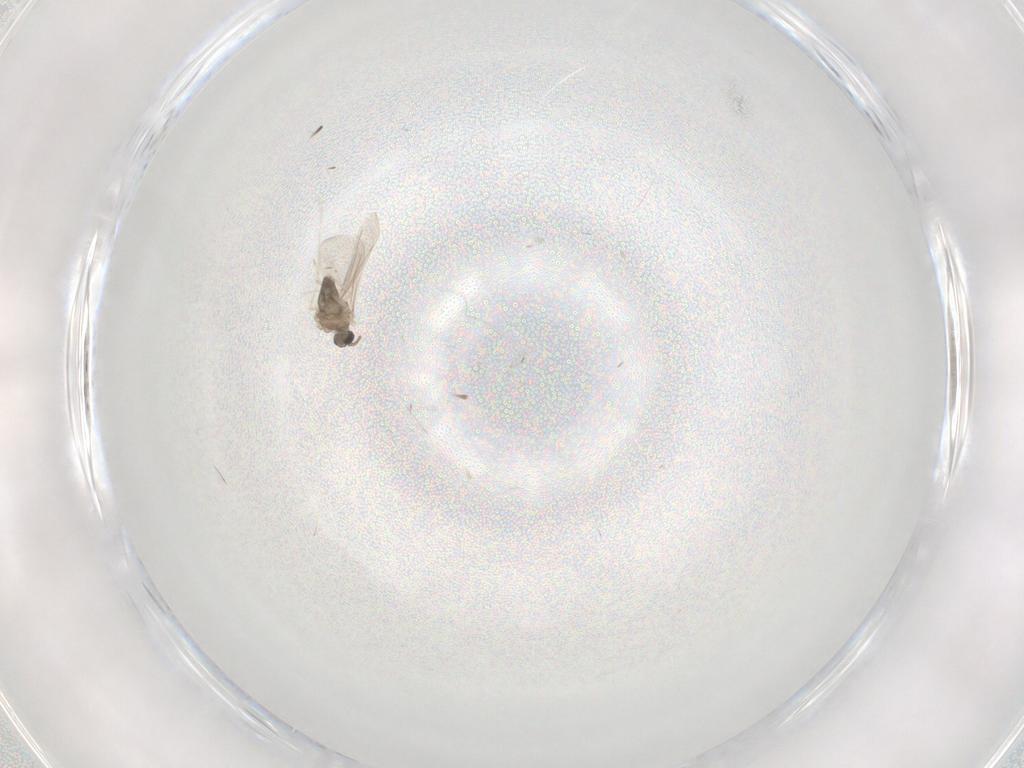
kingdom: Animalia
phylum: Arthropoda
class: Insecta
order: Diptera
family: Cecidomyiidae
